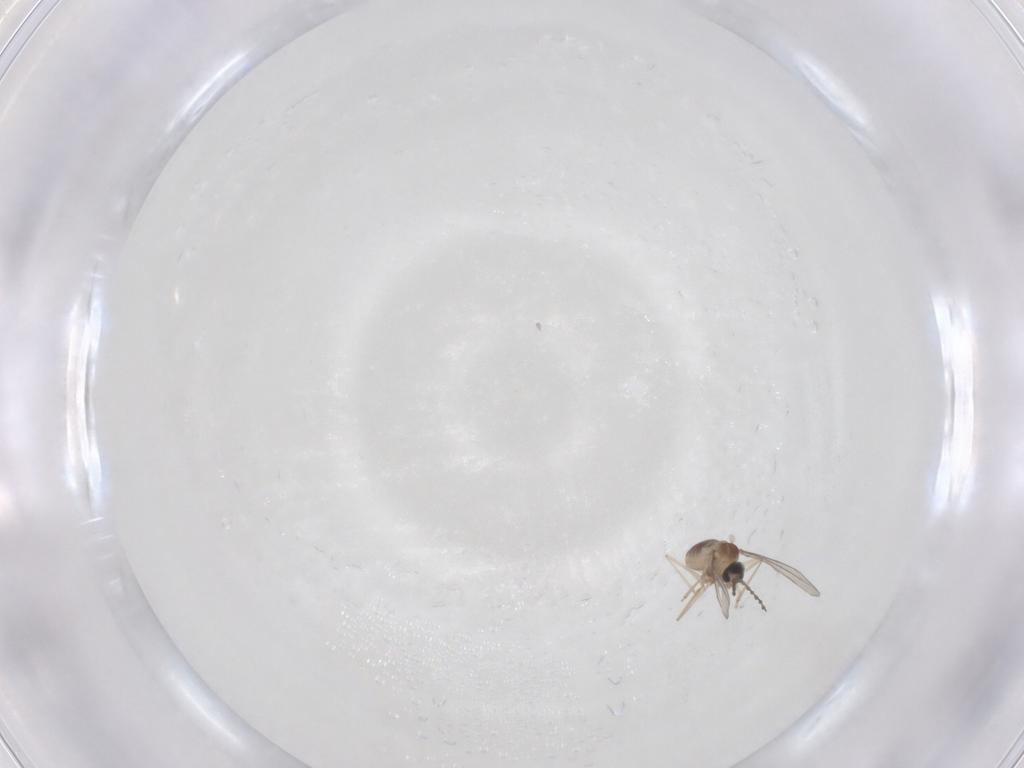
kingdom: Animalia
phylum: Arthropoda
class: Insecta
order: Diptera
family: Cecidomyiidae
